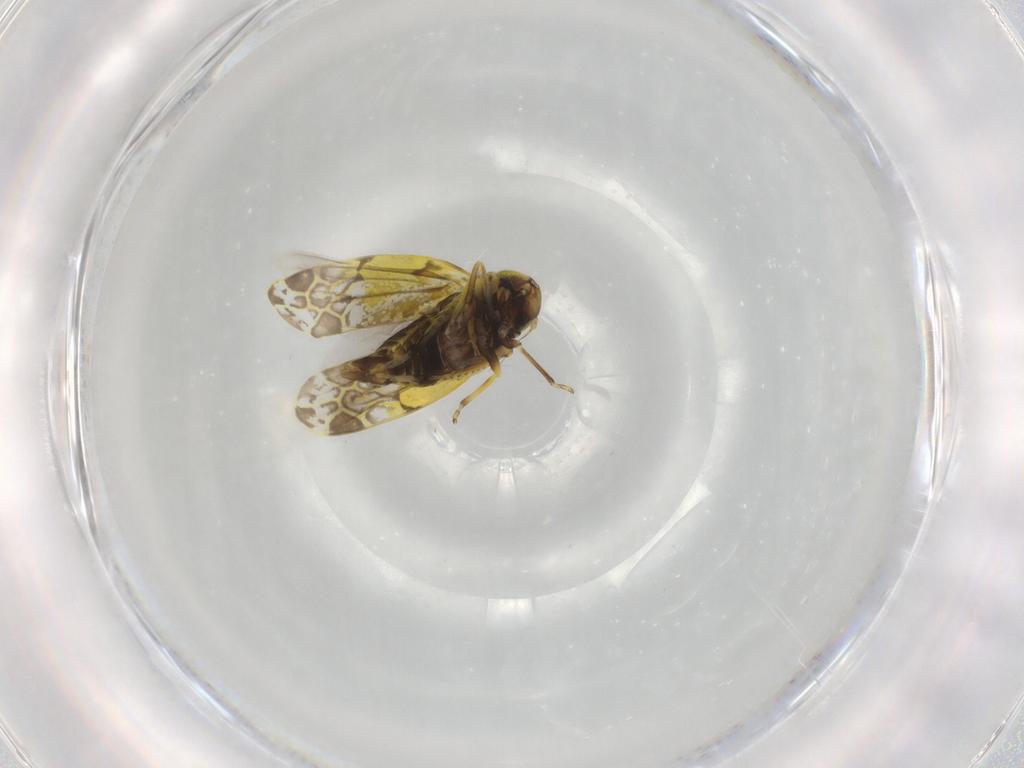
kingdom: Animalia
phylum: Arthropoda
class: Insecta
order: Hemiptera
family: Cicadellidae
